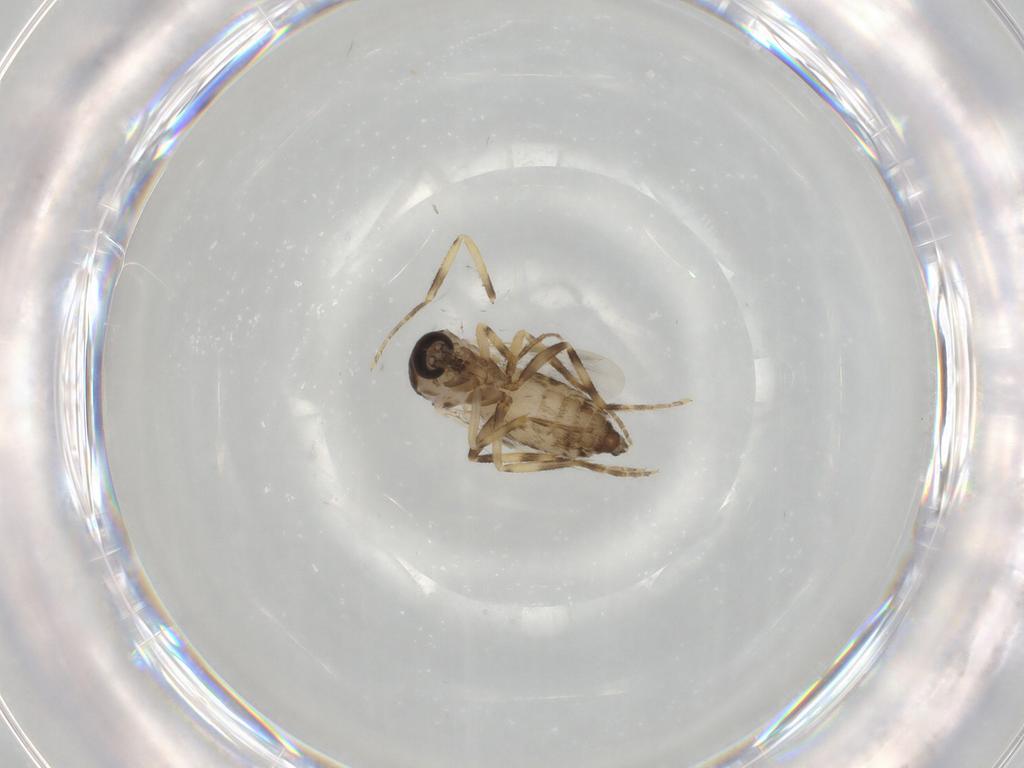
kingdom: Animalia
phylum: Arthropoda
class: Insecta
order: Diptera
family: Ceratopogonidae
